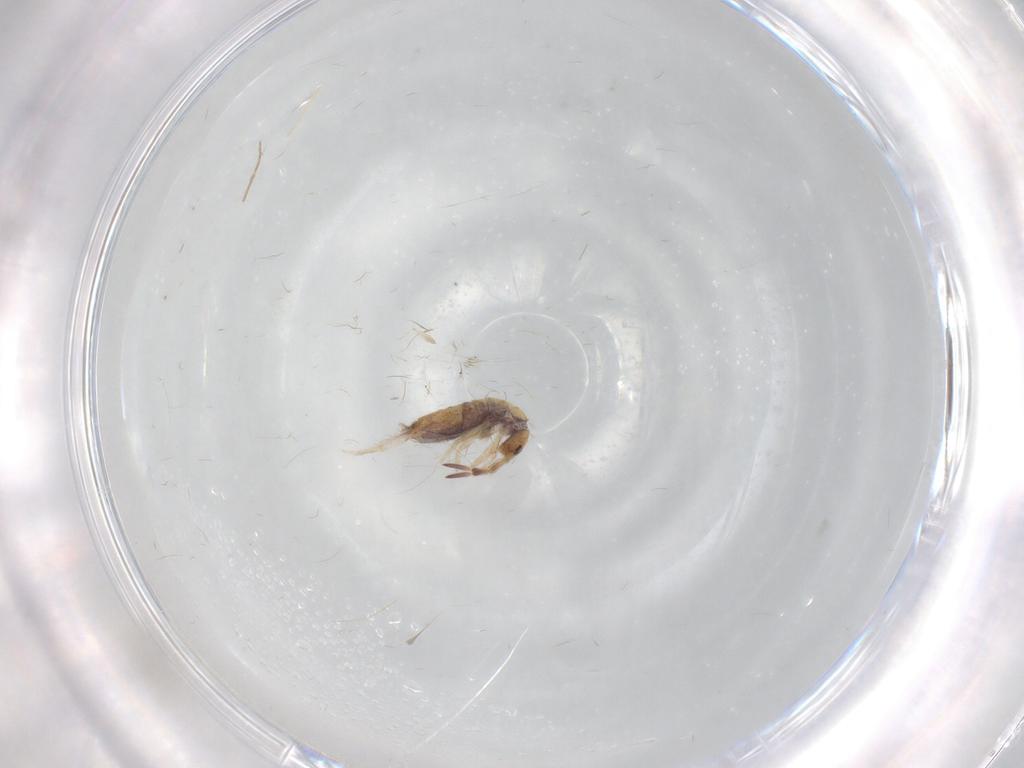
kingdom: Animalia
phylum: Arthropoda
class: Collembola
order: Entomobryomorpha
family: Entomobryidae
